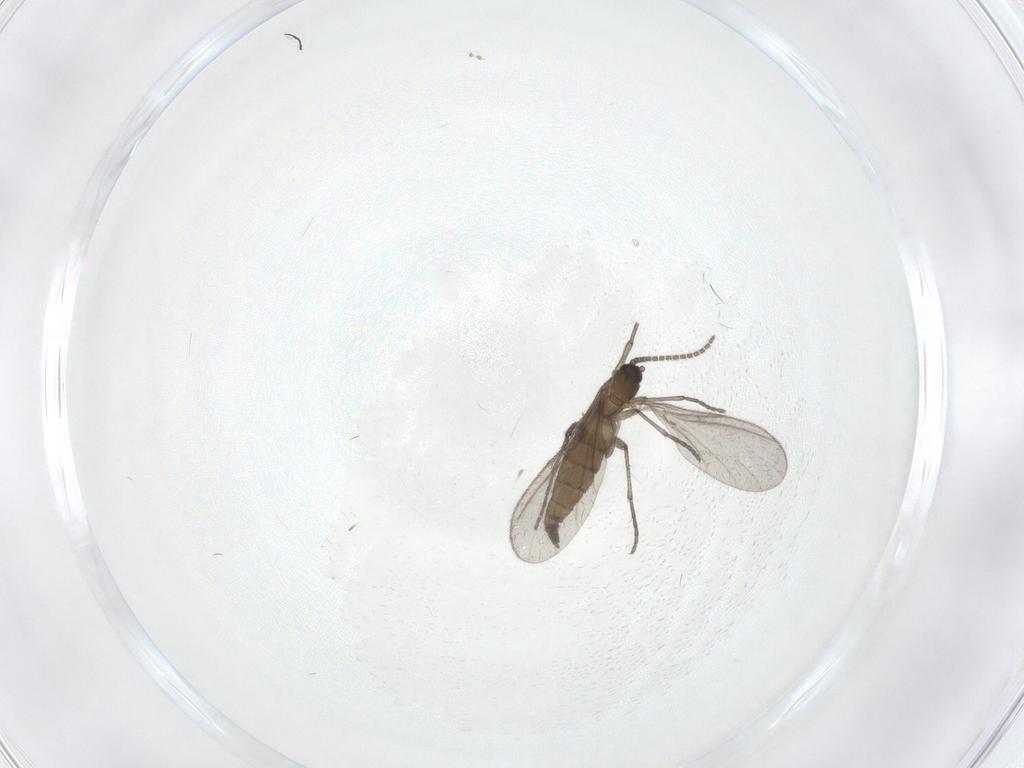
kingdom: Animalia
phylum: Arthropoda
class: Insecta
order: Diptera
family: Sciaridae
